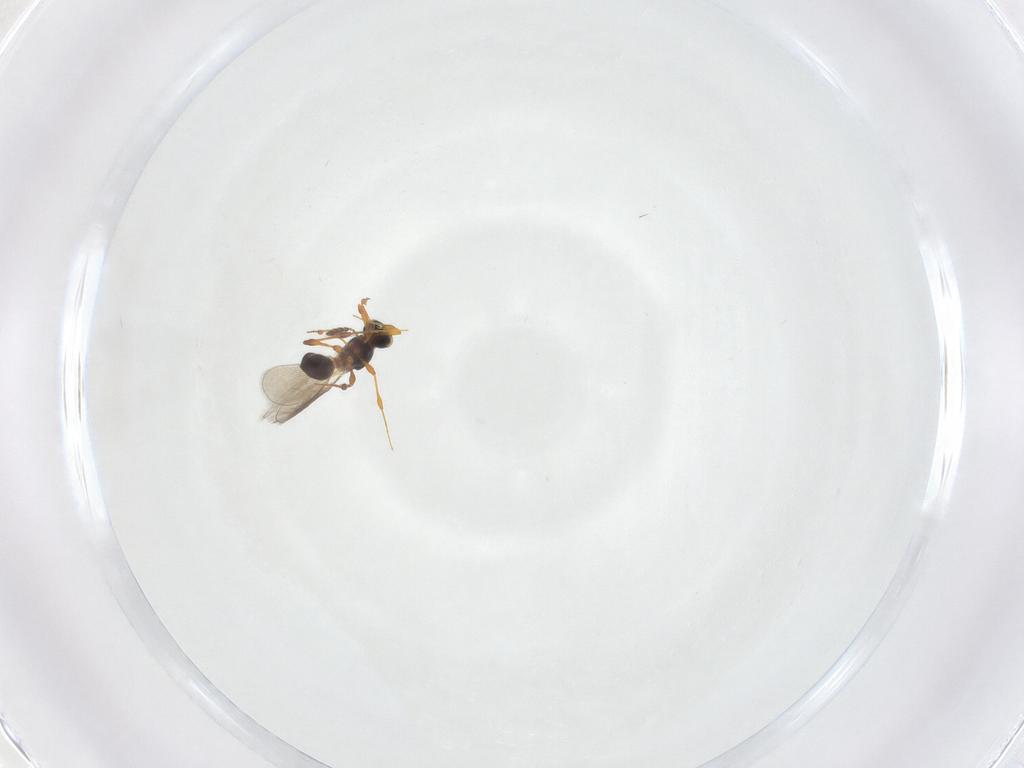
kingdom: Animalia
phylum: Arthropoda
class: Insecta
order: Hymenoptera
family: Platygastridae
